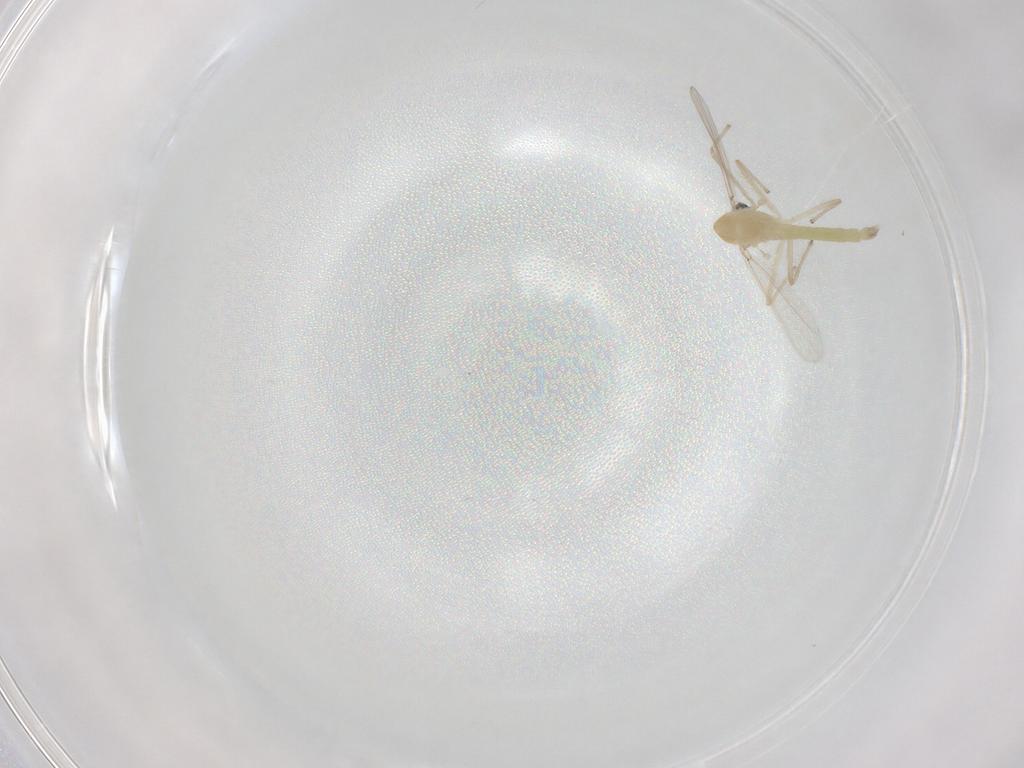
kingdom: Animalia
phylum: Arthropoda
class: Insecta
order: Diptera
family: Chironomidae
